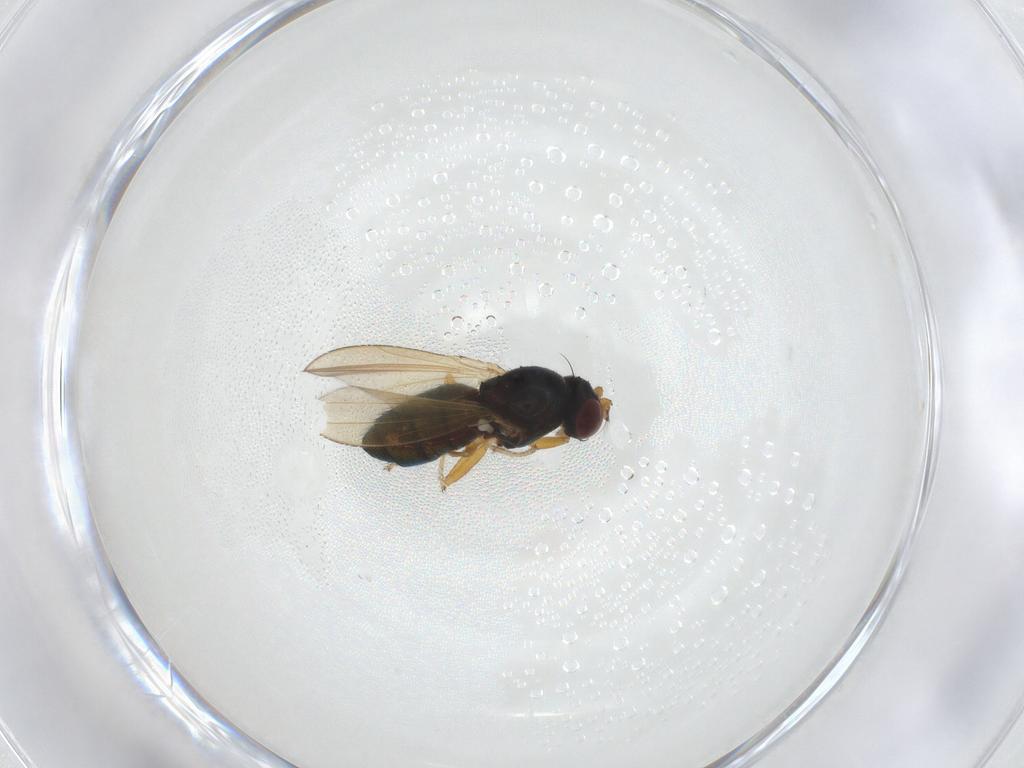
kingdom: Animalia
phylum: Arthropoda
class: Insecta
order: Diptera
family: Ephydridae
